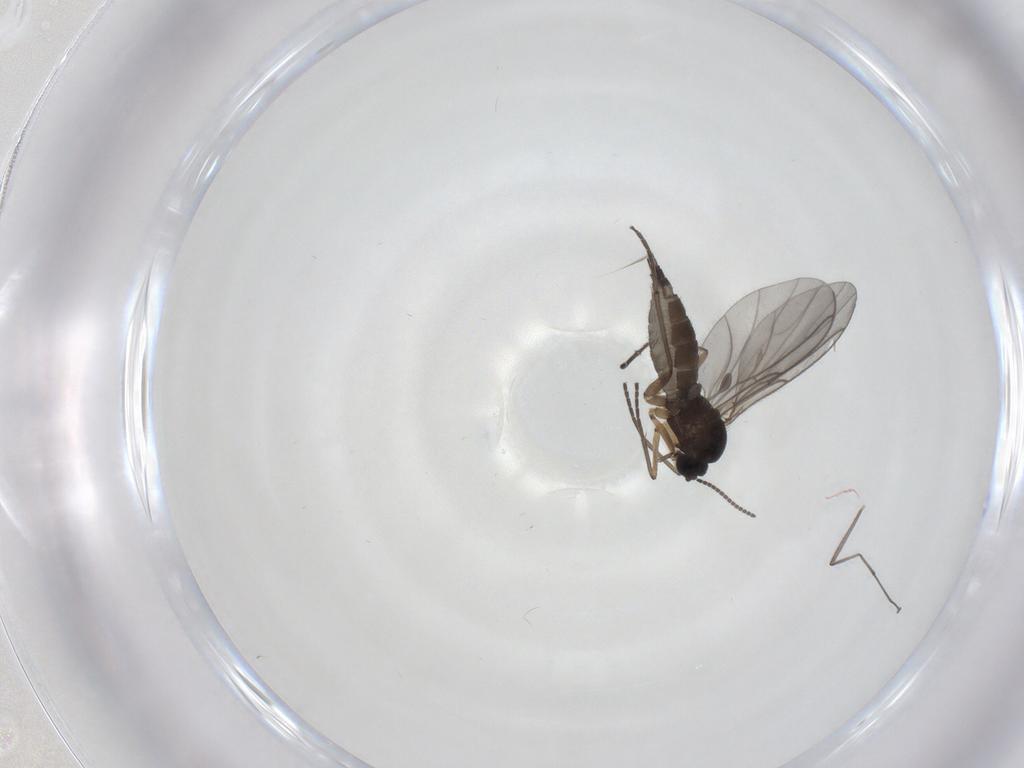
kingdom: Animalia
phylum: Arthropoda
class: Insecta
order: Diptera
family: Sciaridae
